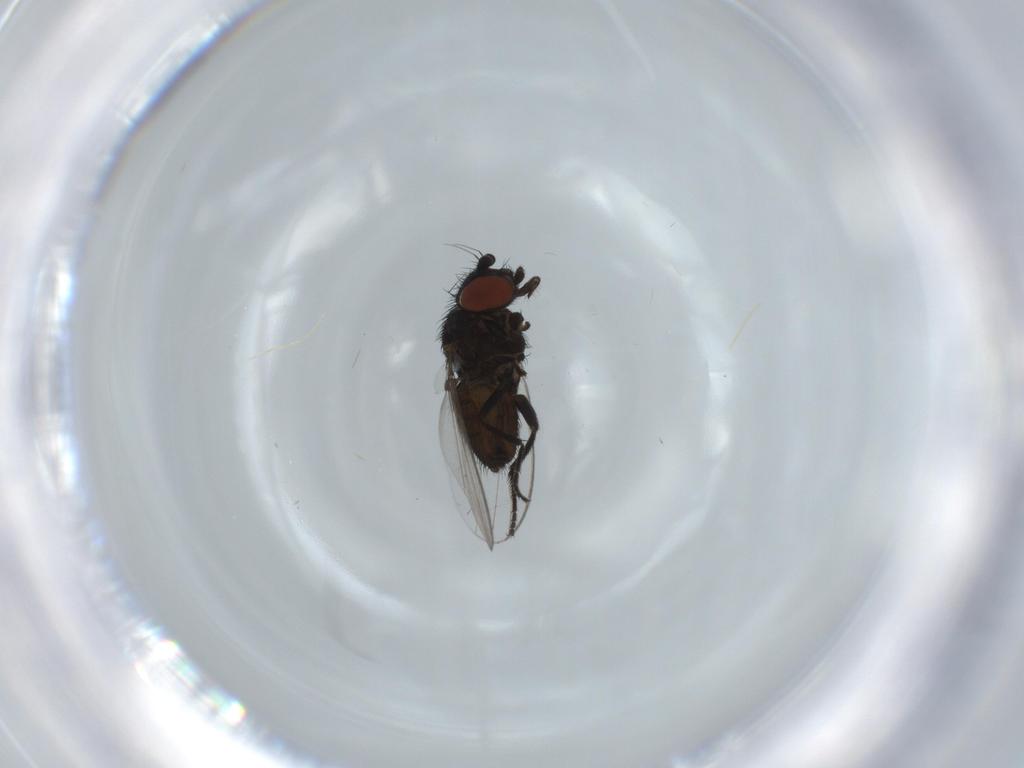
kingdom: Animalia
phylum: Arthropoda
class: Insecta
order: Diptera
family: Milichiidae
